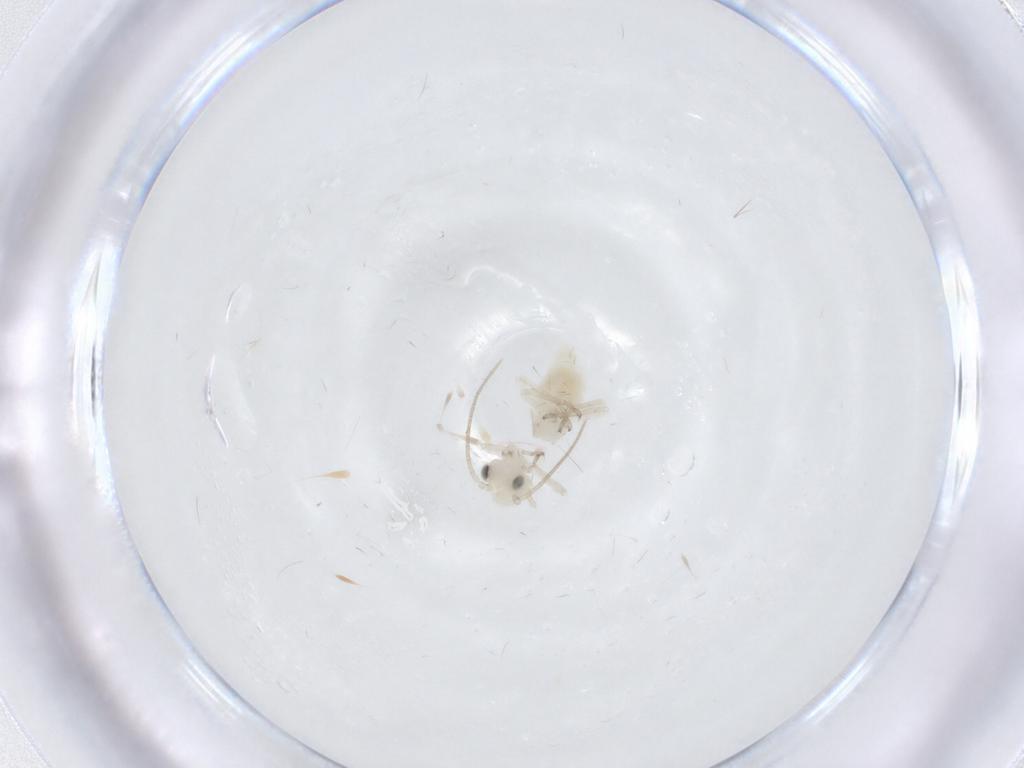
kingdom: Animalia
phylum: Arthropoda
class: Insecta
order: Psocodea
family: Caeciliusidae
